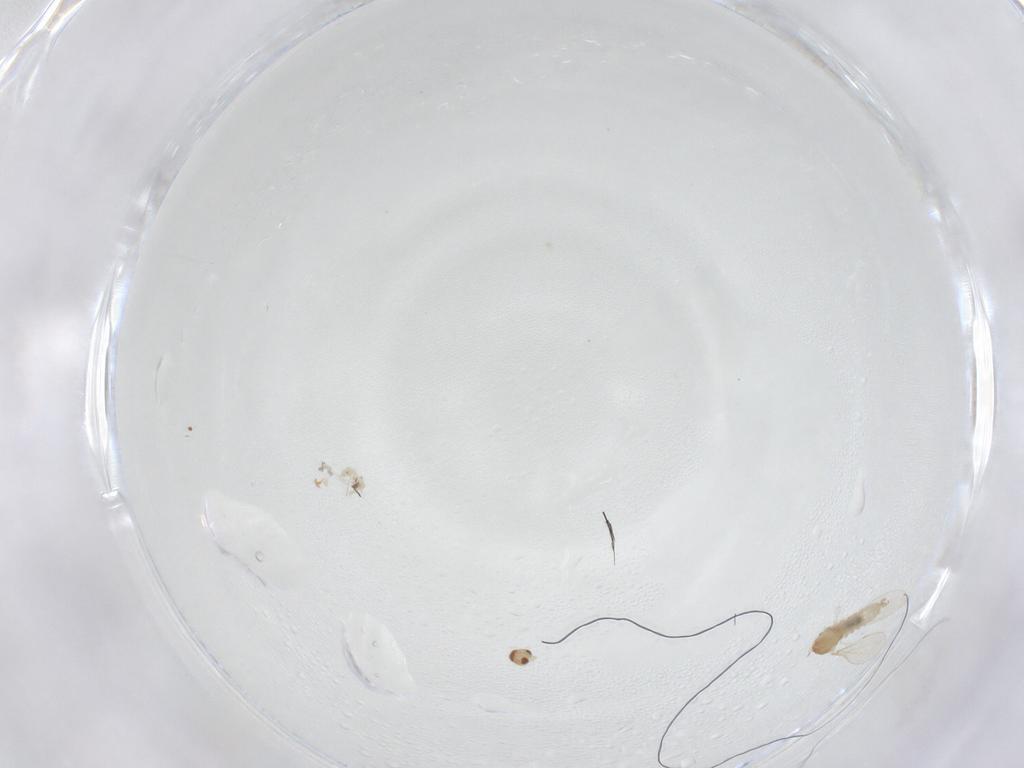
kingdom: Animalia
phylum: Arthropoda
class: Insecta
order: Diptera
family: Cecidomyiidae
